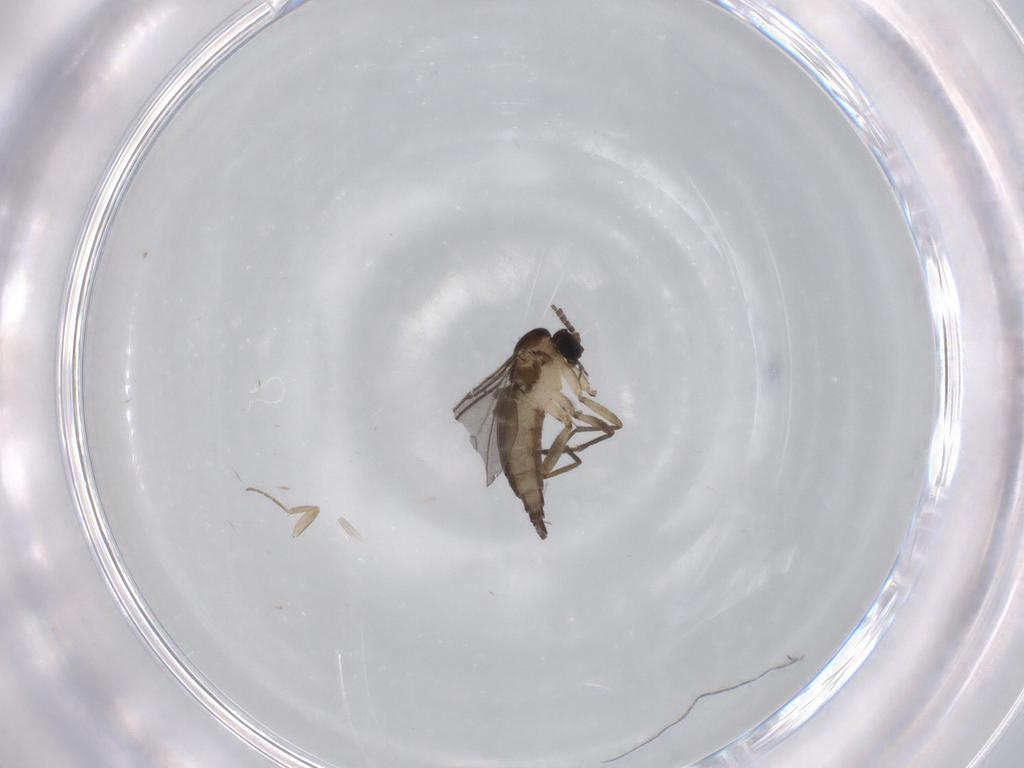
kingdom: Animalia
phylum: Arthropoda
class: Insecta
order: Diptera
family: Sciaridae
